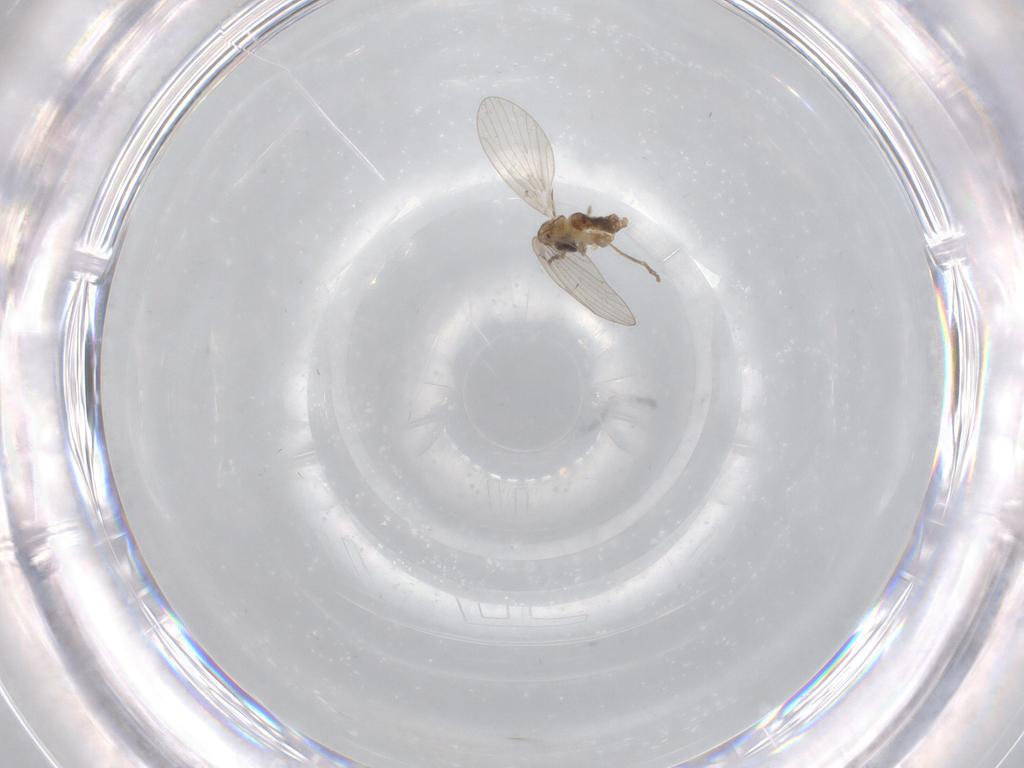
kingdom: Animalia
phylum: Arthropoda
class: Insecta
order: Diptera
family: Psychodidae
